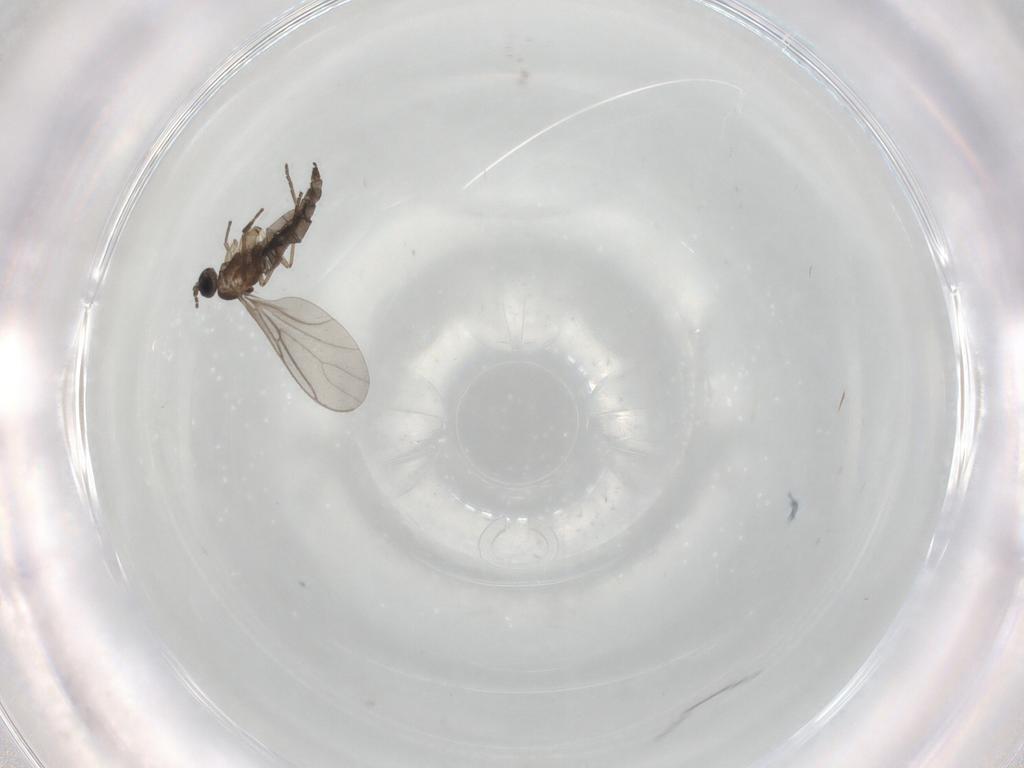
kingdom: Animalia
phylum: Arthropoda
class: Insecta
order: Diptera
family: Sciaridae
